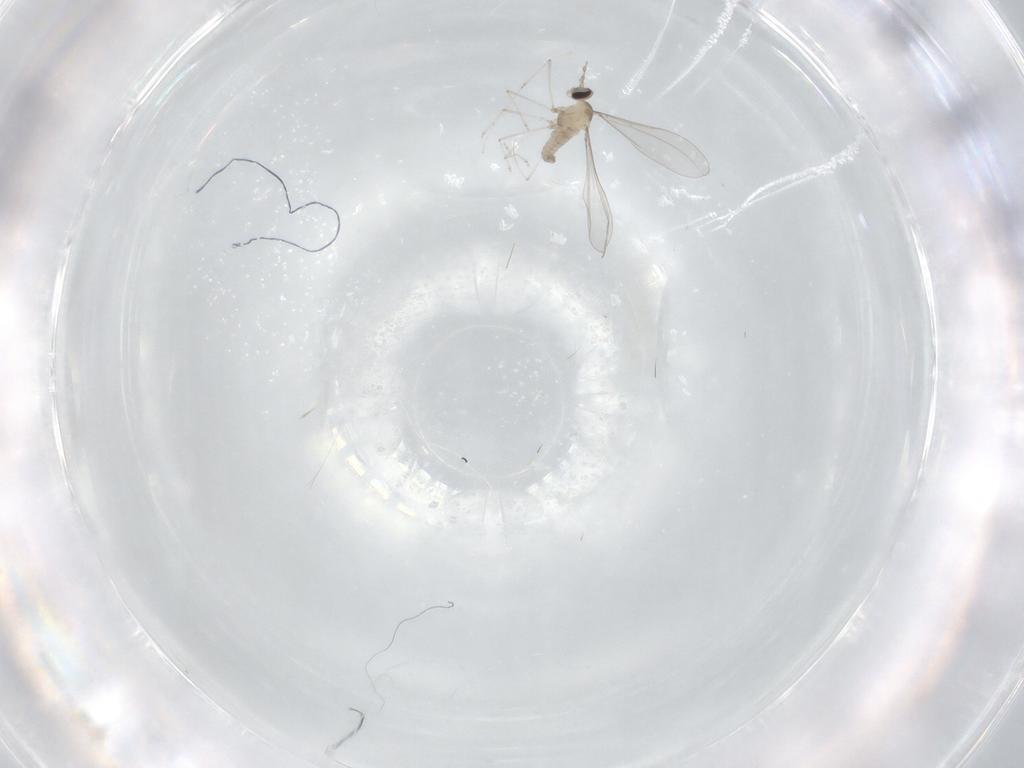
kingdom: Animalia
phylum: Arthropoda
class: Insecta
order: Diptera
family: Cecidomyiidae
